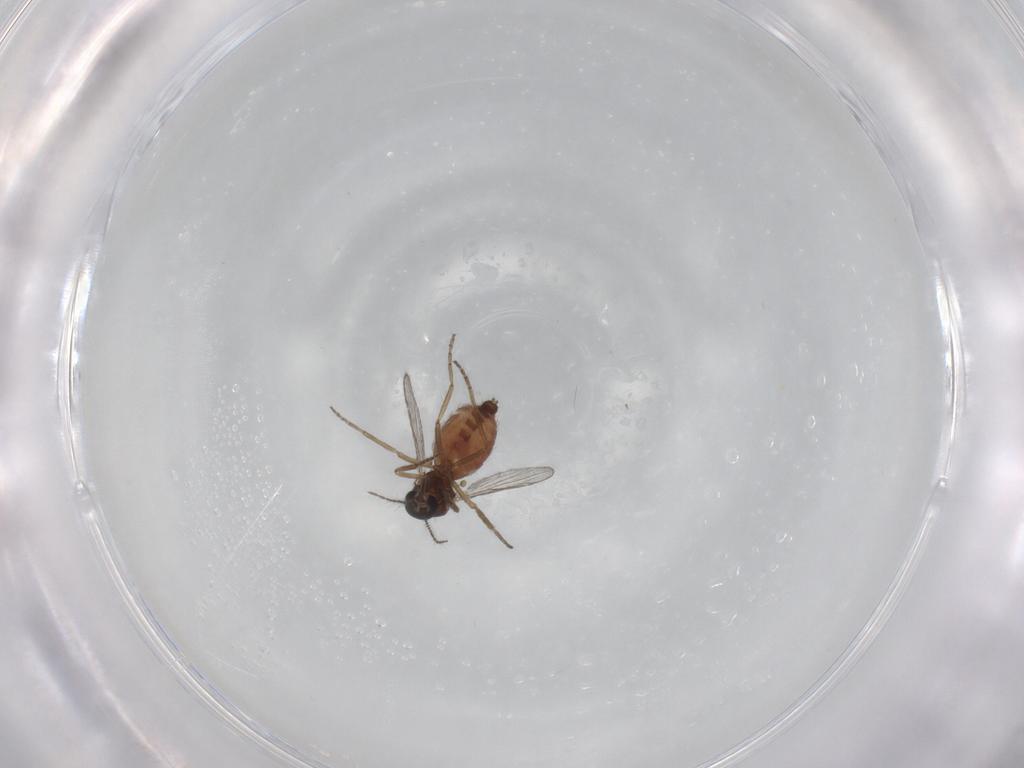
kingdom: Animalia
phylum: Arthropoda
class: Insecta
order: Diptera
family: Ceratopogonidae
